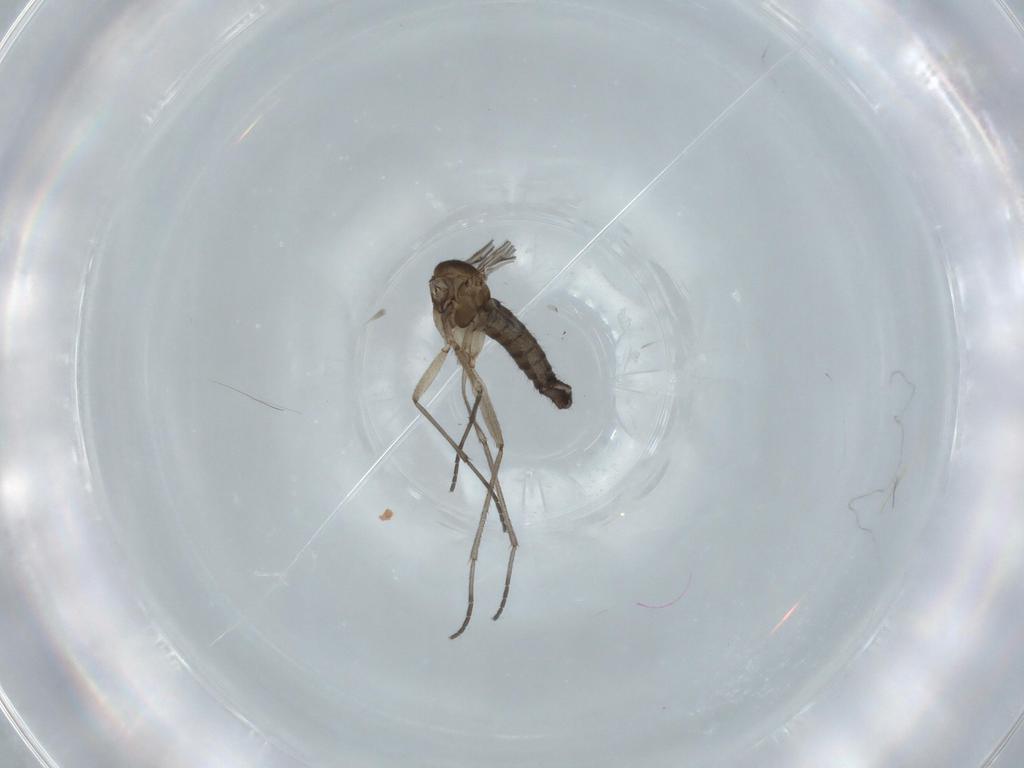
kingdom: Animalia
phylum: Arthropoda
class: Insecta
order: Diptera
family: Sciaridae
